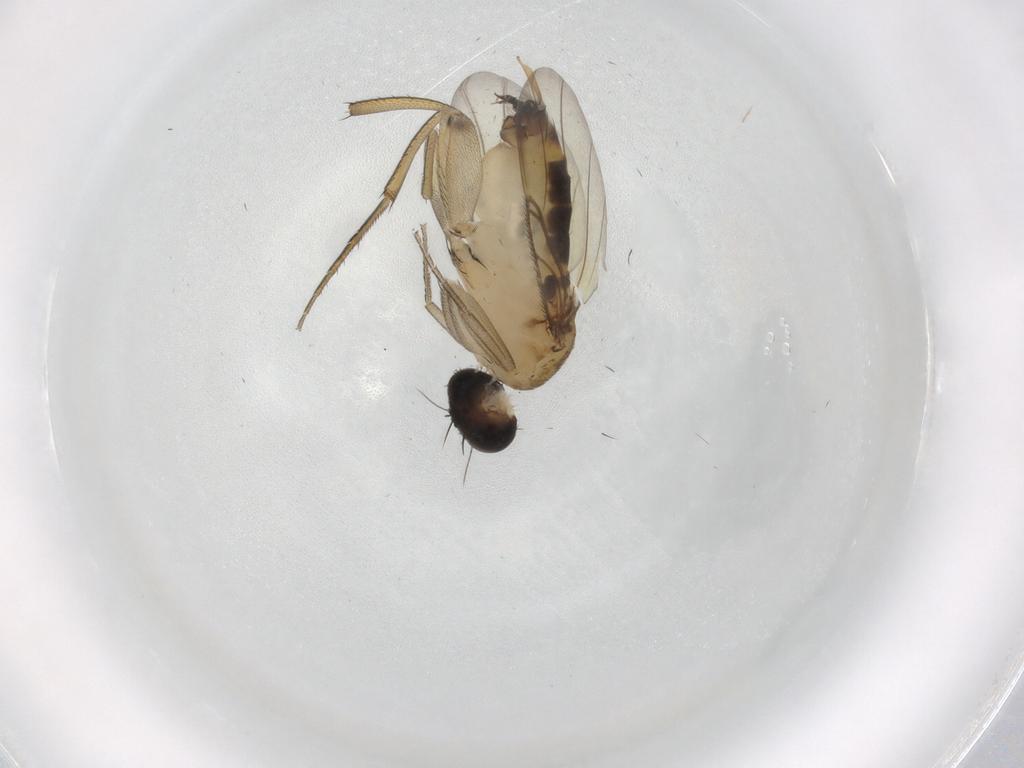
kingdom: Animalia
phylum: Arthropoda
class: Insecta
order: Diptera
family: Phoridae
